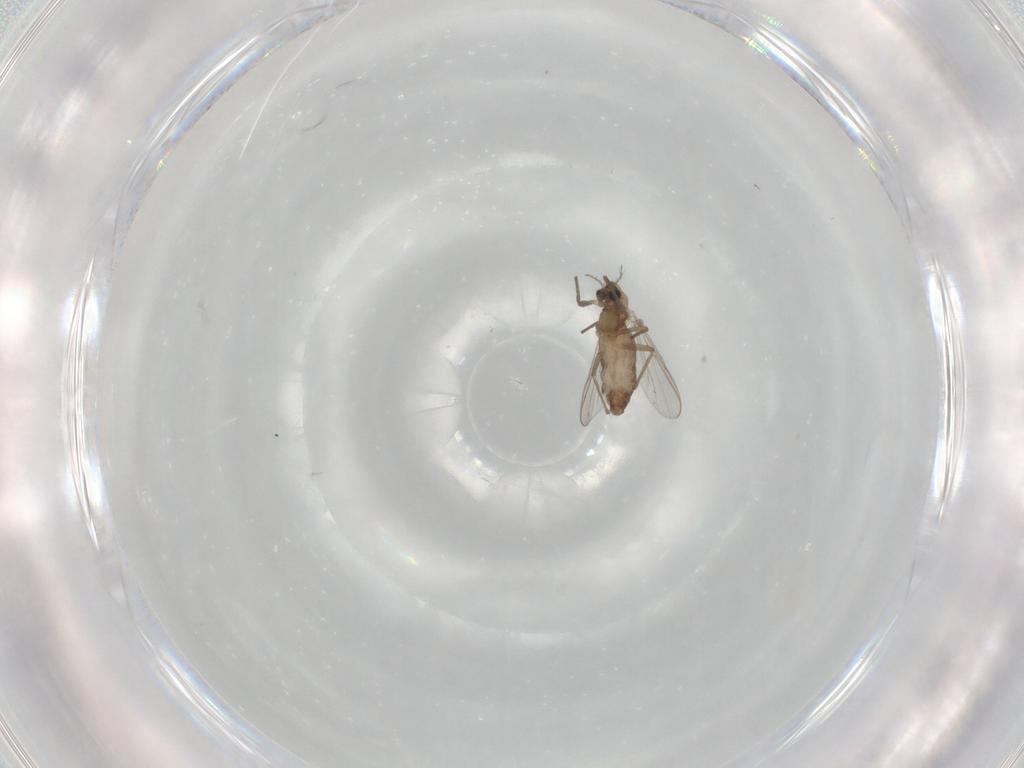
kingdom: Animalia
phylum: Arthropoda
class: Insecta
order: Diptera
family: Chironomidae
